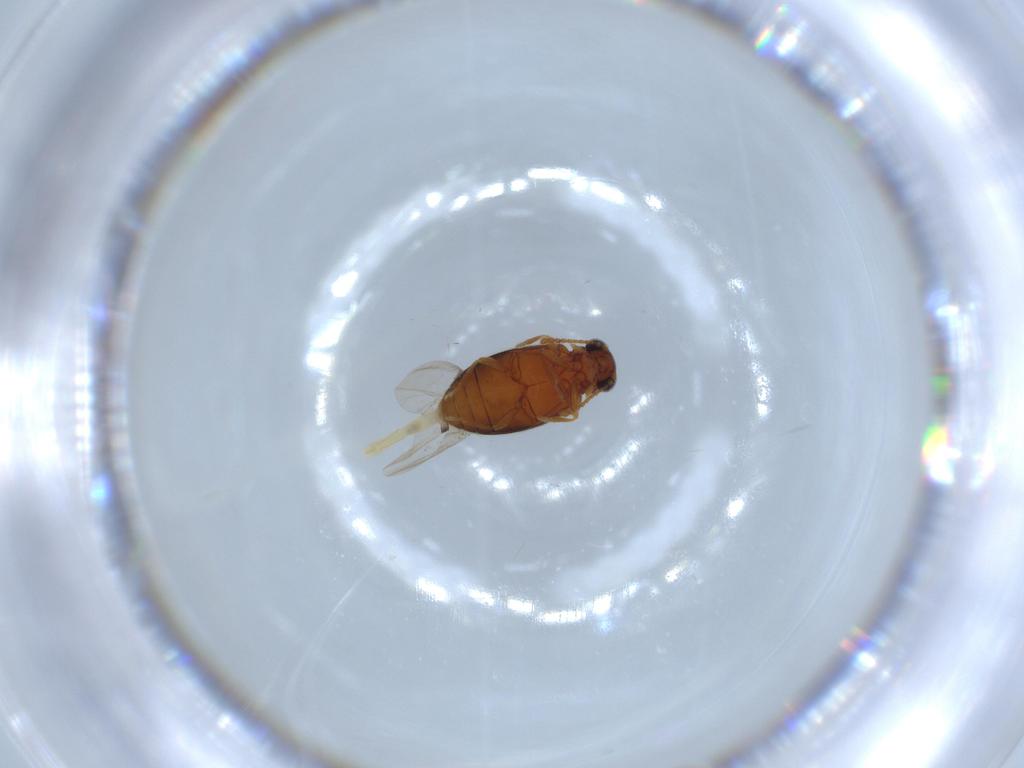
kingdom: Animalia
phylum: Arthropoda
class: Insecta
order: Coleoptera
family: Aderidae
